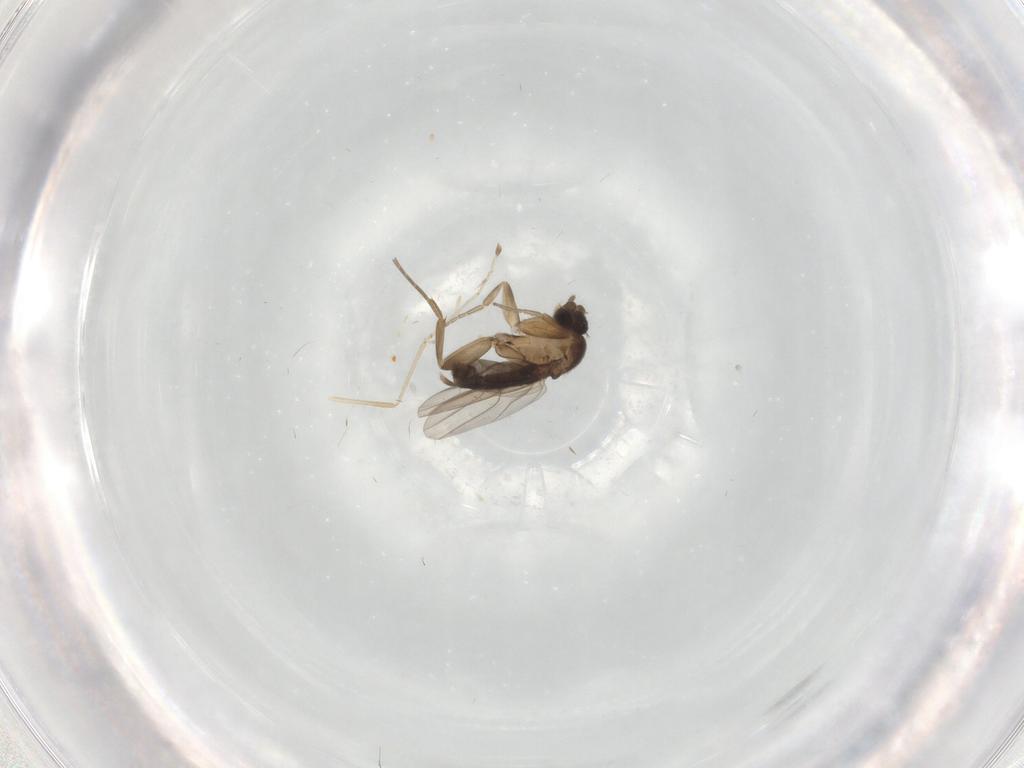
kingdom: Animalia
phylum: Arthropoda
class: Insecta
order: Diptera
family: Phoridae
